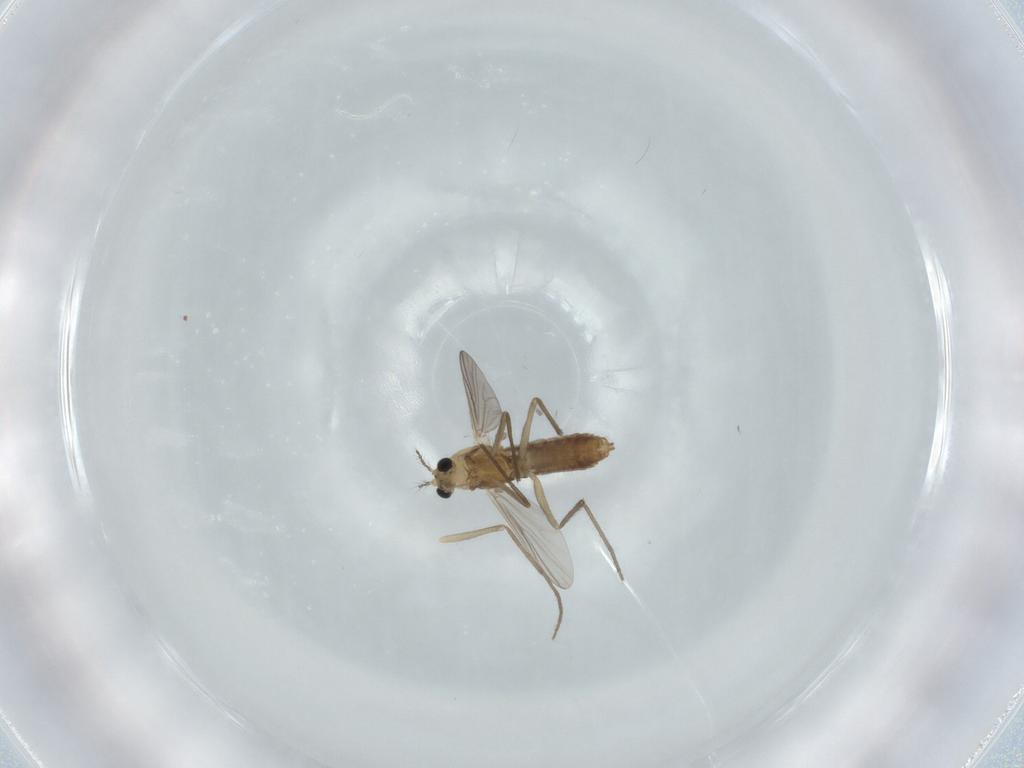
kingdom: Animalia
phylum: Arthropoda
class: Insecta
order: Diptera
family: Chironomidae
